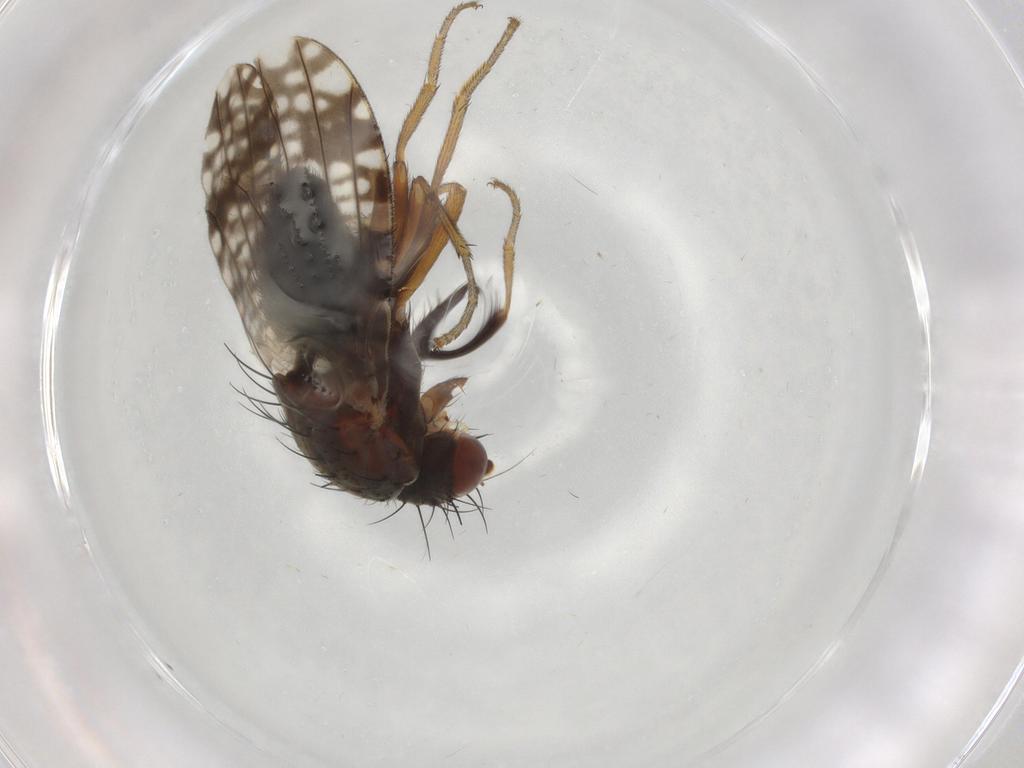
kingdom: Animalia
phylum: Arthropoda
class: Insecta
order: Diptera
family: Tephritidae
